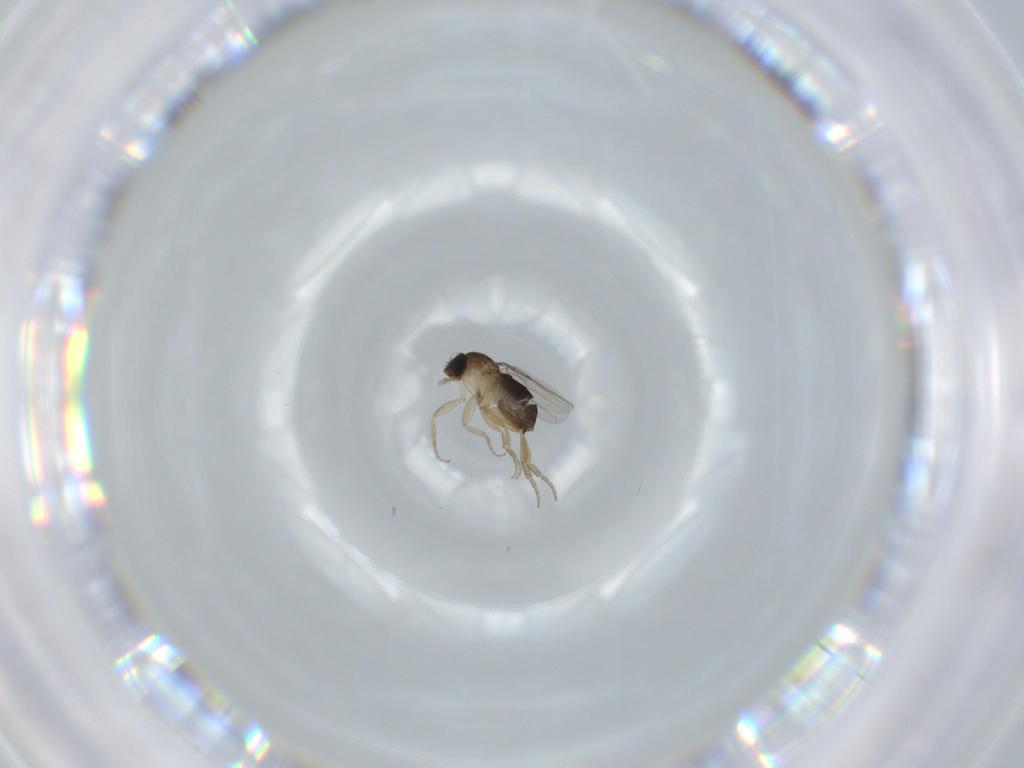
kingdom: Animalia
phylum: Arthropoda
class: Insecta
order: Diptera
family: Phoridae
